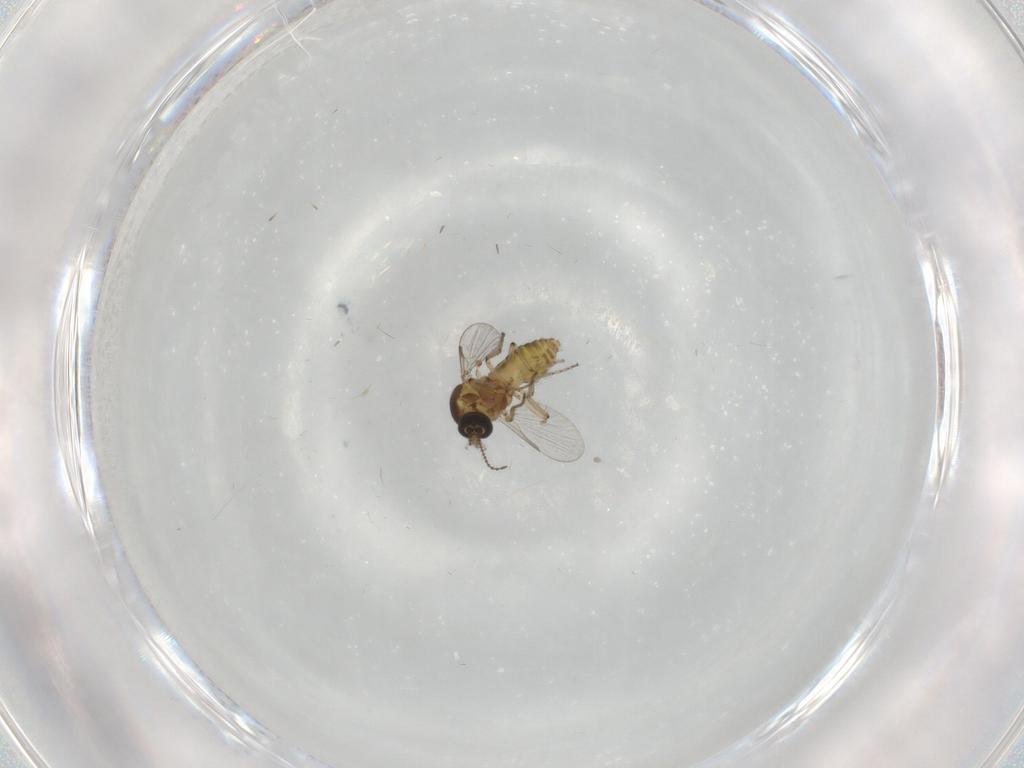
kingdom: Animalia
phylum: Arthropoda
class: Insecta
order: Diptera
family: Ceratopogonidae
